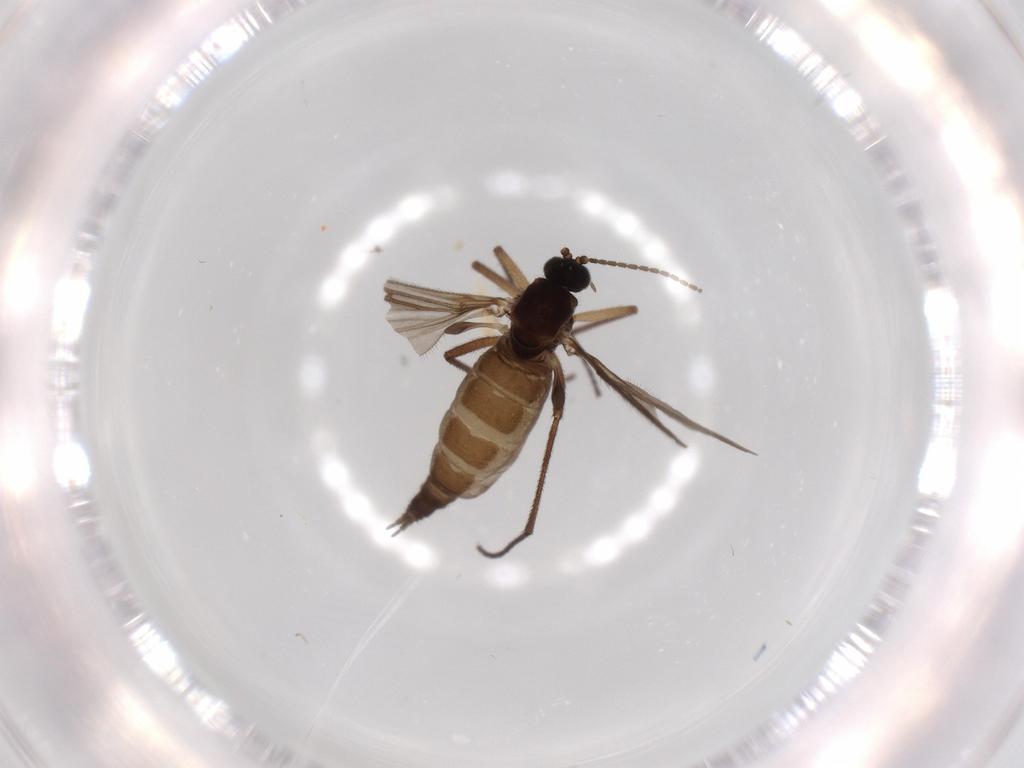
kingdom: Animalia
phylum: Arthropoda
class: Insecta
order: Diptera
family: Sciaridae
